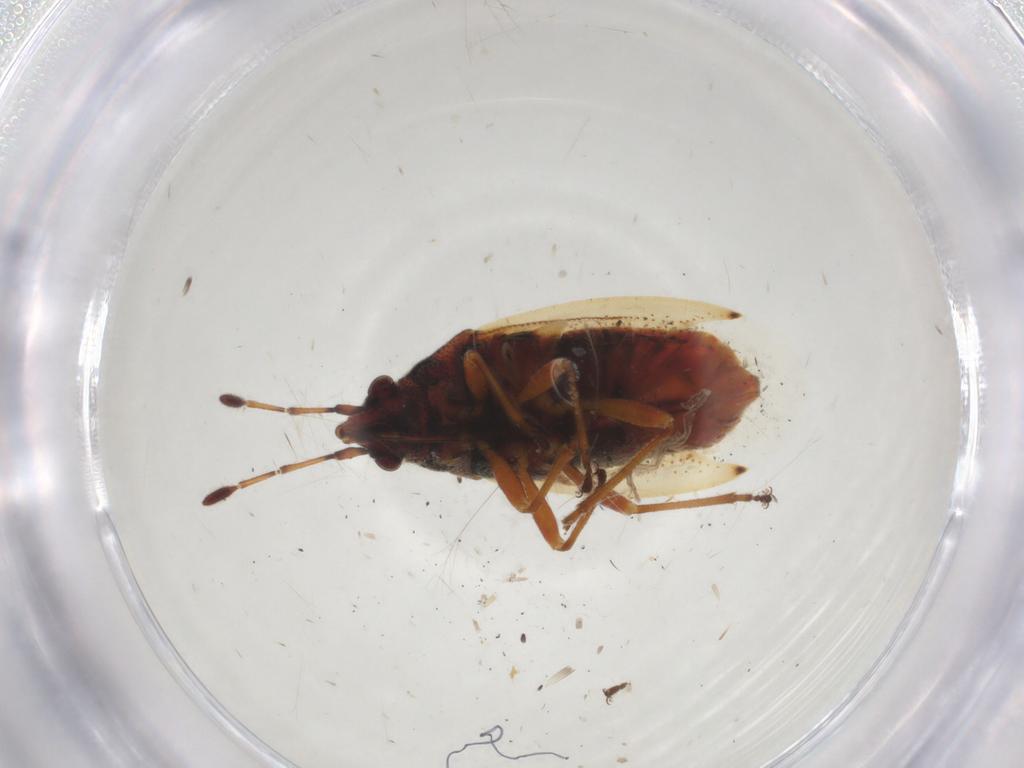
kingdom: Animalia
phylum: Arthropoda
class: Insecta
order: Hemiptera
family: Lygaeidae
